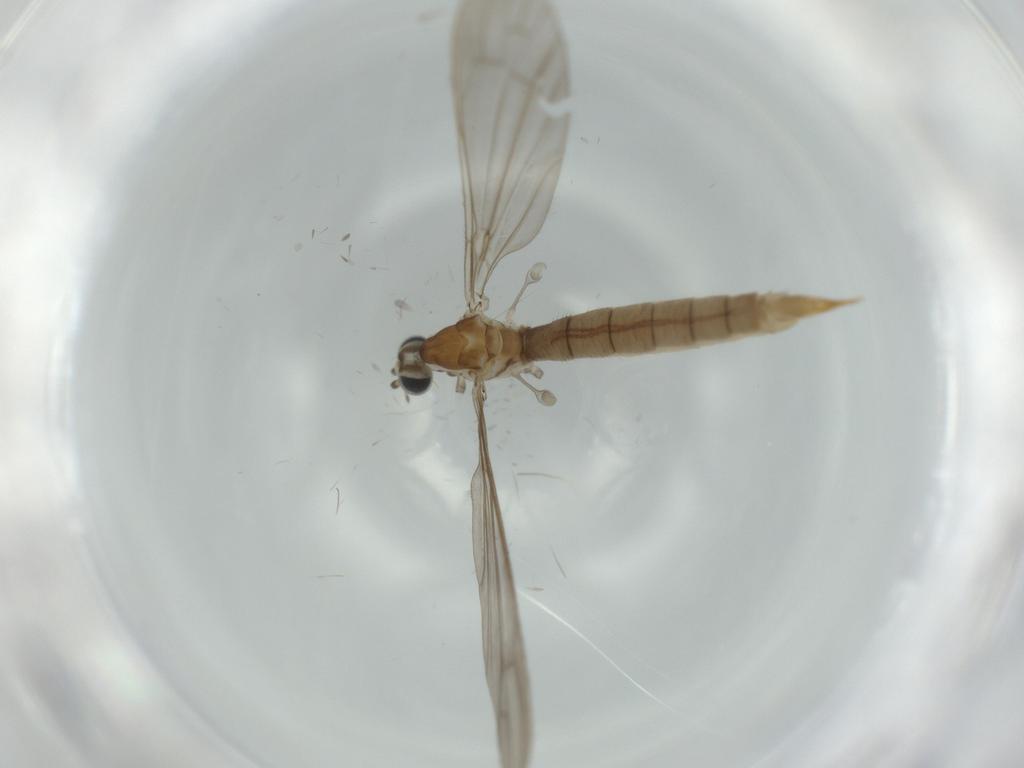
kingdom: Animalia
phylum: Arthropoda
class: Insecta
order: Diptera
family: Limoniidae
